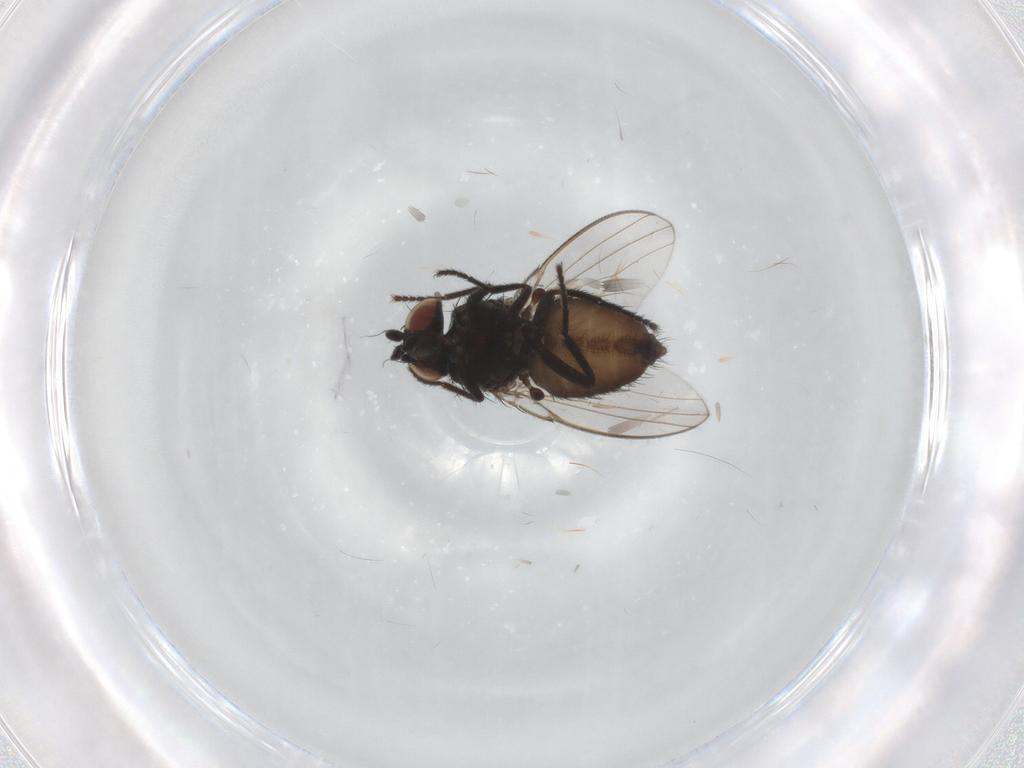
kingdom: Animalia
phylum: Arthropoda
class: Insecta
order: Diptera
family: Milichiidae
